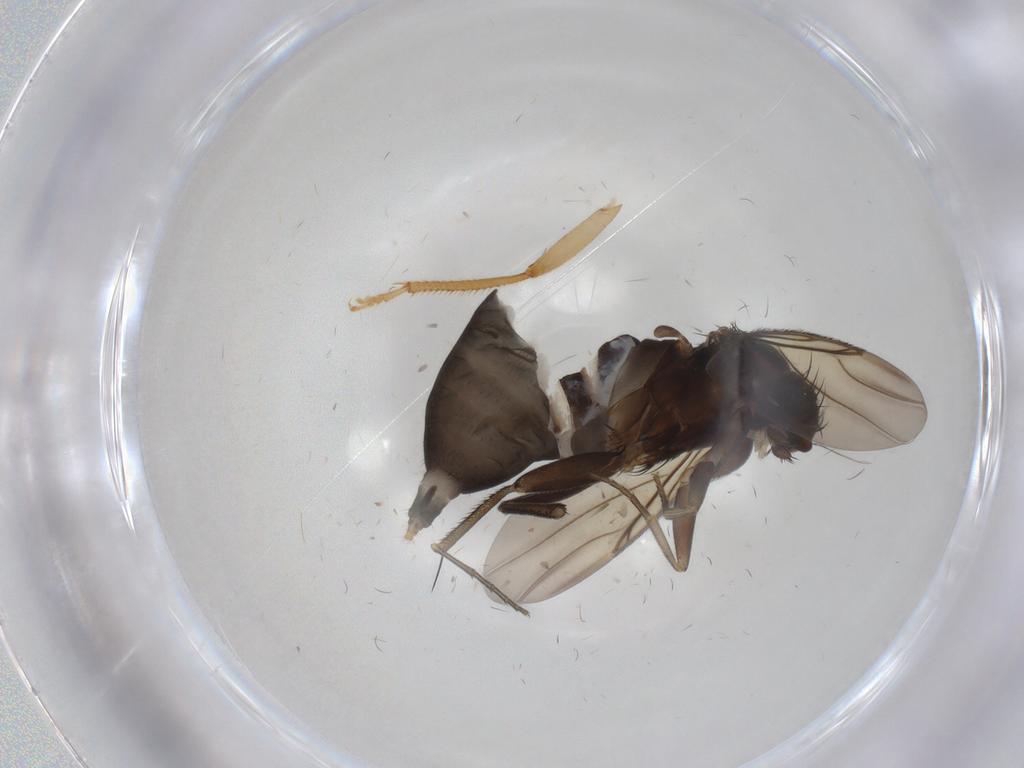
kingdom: Animalia
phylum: Arthropoda
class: Insecta
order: Diptera
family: Phoridae
